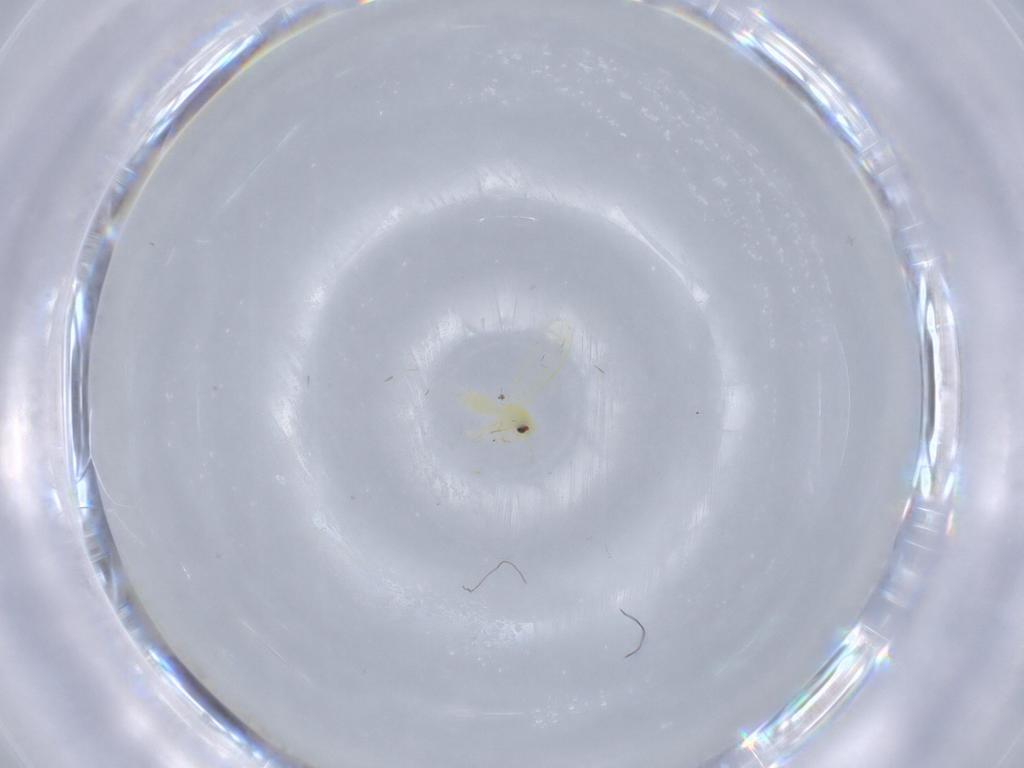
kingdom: Animalia
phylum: Arthropoda
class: Insecta
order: Hemiptera
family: Aleyrodidae
